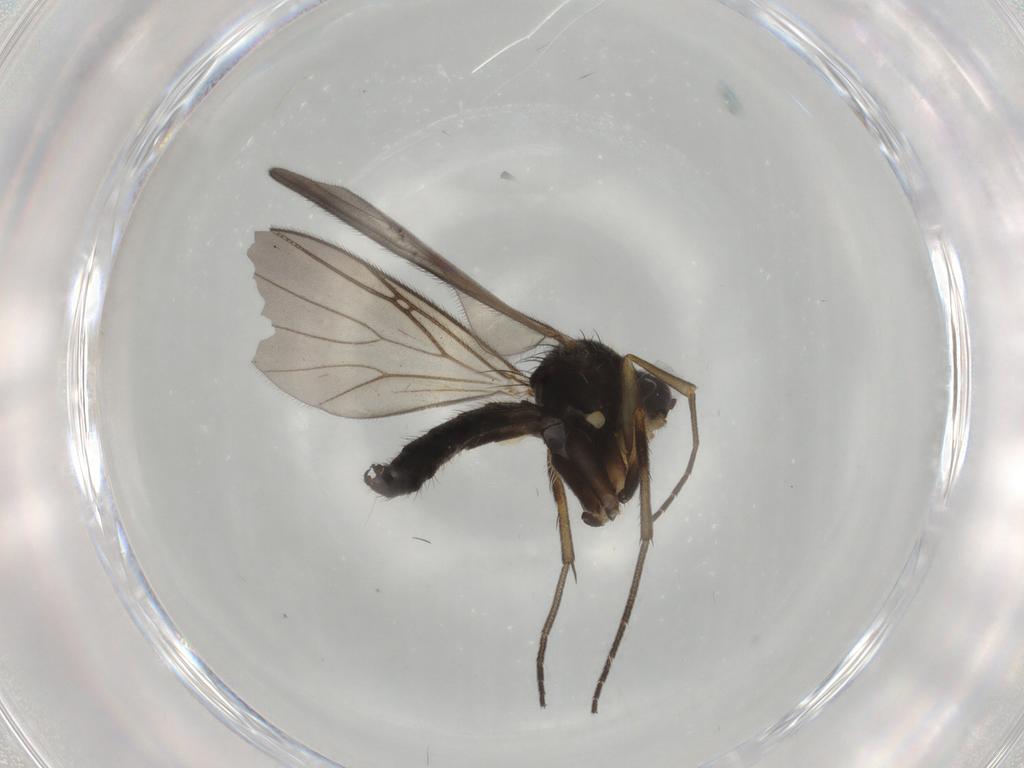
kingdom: Animalia
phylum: Arthropoda
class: Insecta
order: Diptera
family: Mycetophilidae
